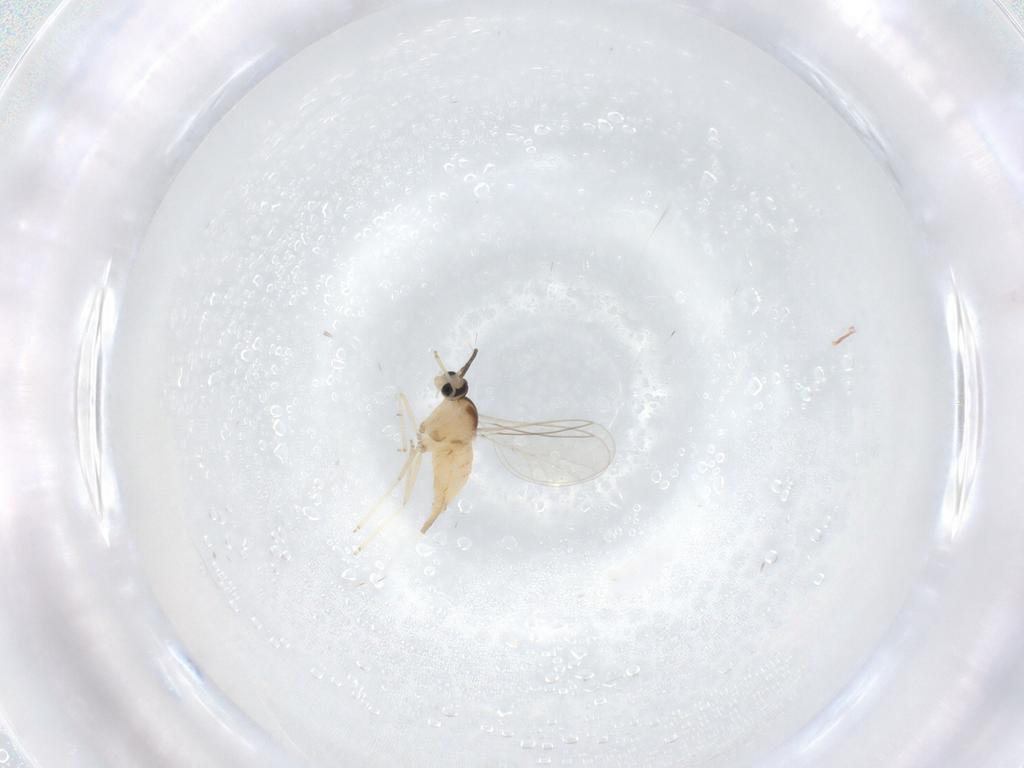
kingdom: Animalia
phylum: Arthropoda
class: Insecta
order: Diptera
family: Cecidomyiidae
